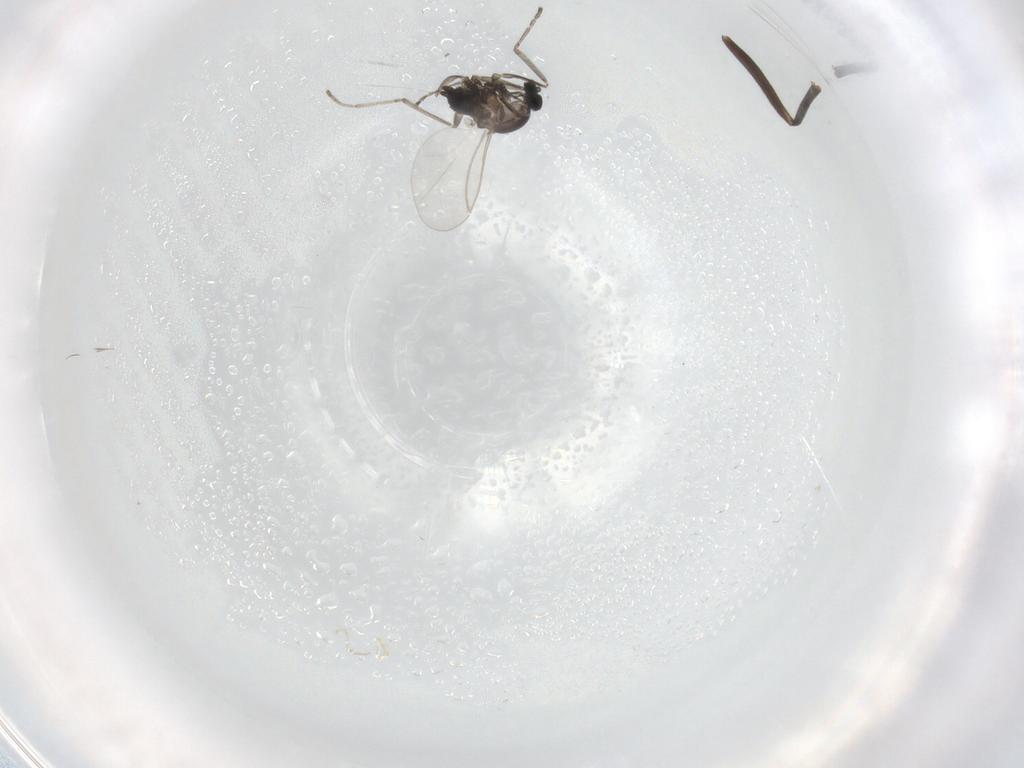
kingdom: Animalia
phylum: Arthropoda
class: Insecta
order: Diptera
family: Cecidomyiidae
